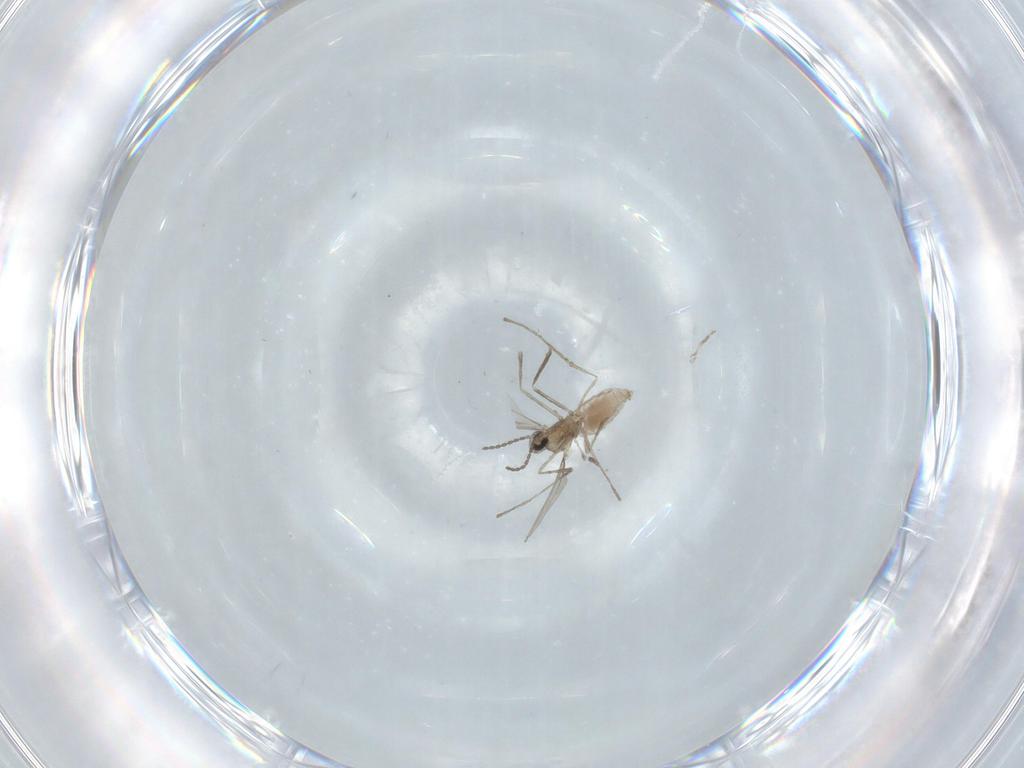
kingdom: Animalia
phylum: Arthropoda
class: Insecta
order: Diptera
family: Cecidomyiidae
